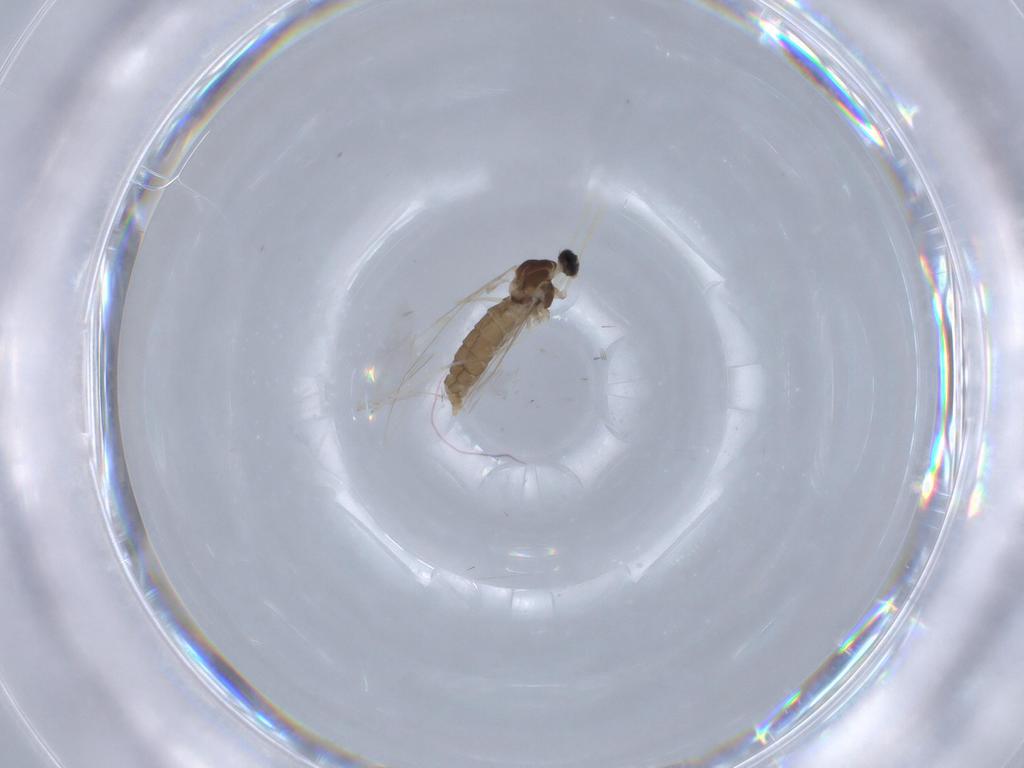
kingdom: Animalia
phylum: Arthropoda
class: Insecta
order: Diptera
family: Cecidomyiidae
